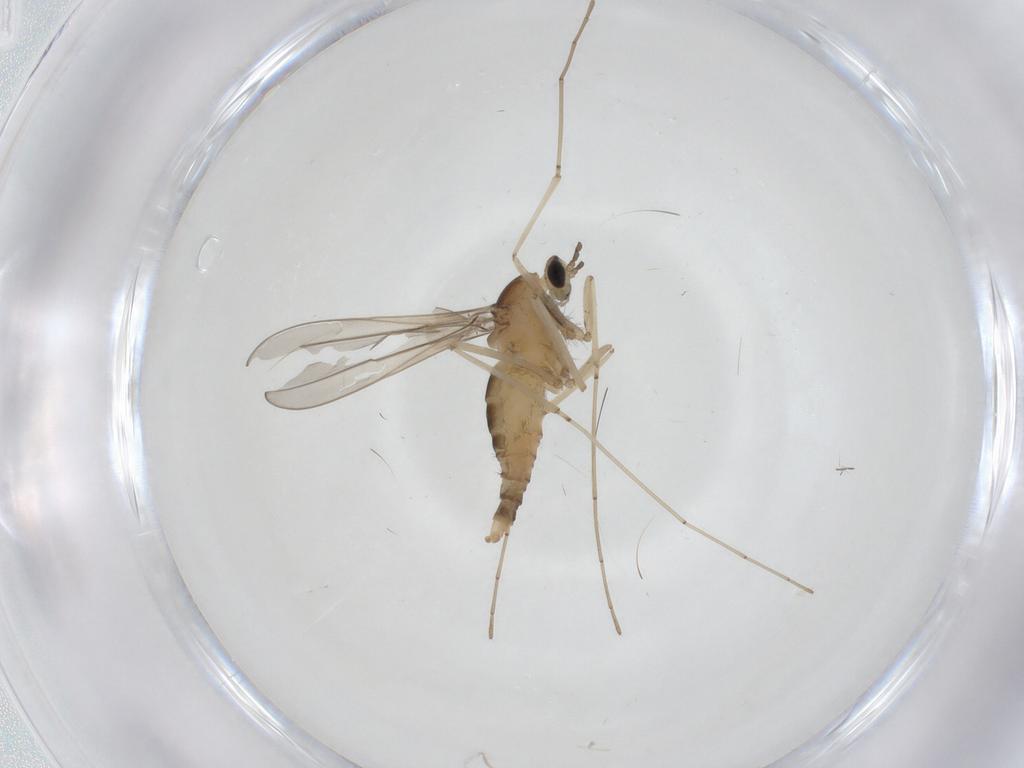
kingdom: Animalia
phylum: Arthropoda
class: Insecta
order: Diptera
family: Cecidomyiidae
